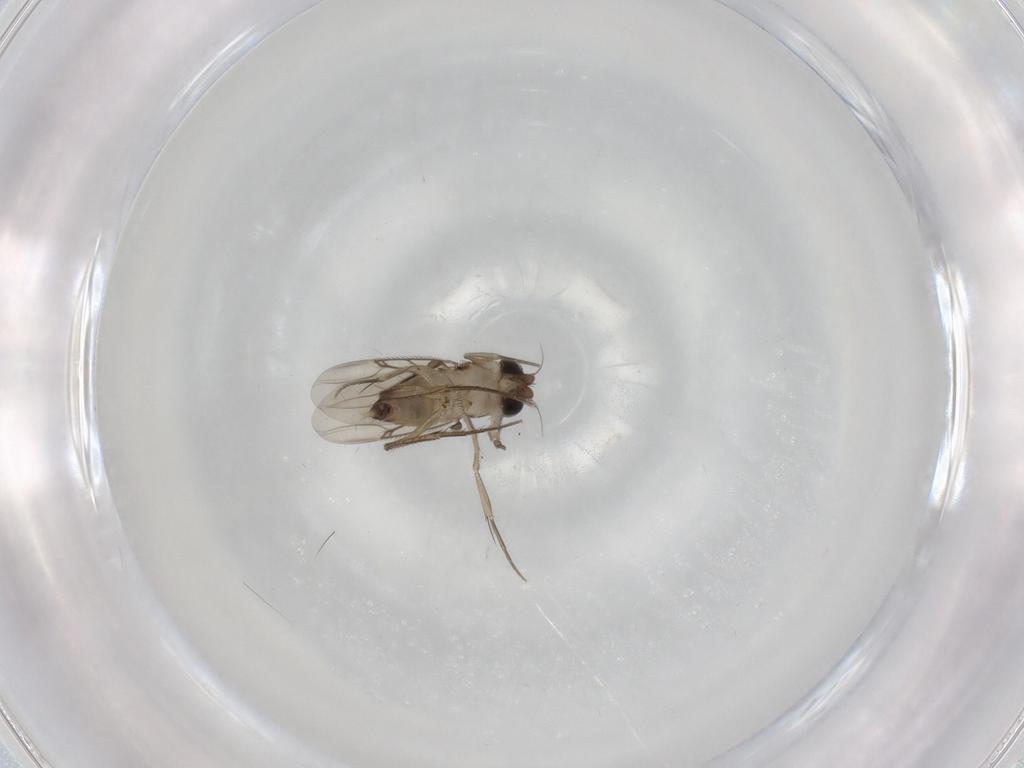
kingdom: Animalia
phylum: Arthropoda
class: Insecta
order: Diptera
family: Phoridae
